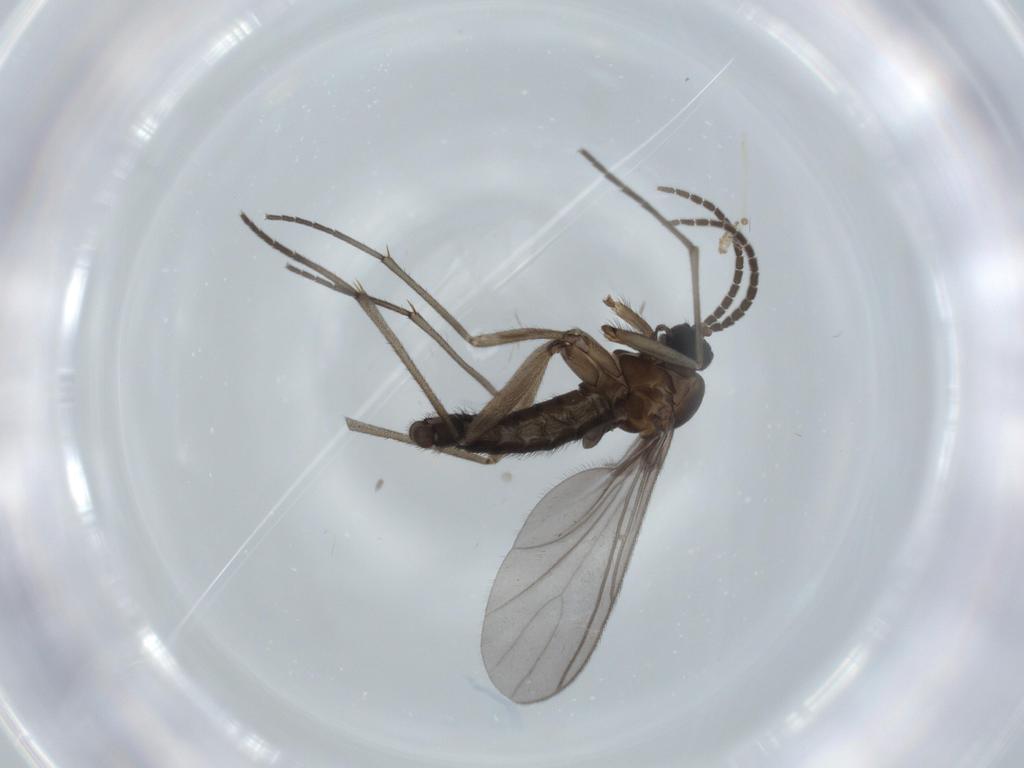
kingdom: Animalia
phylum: Arthropoda
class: Insecta
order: Diptera
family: Sciaridae
